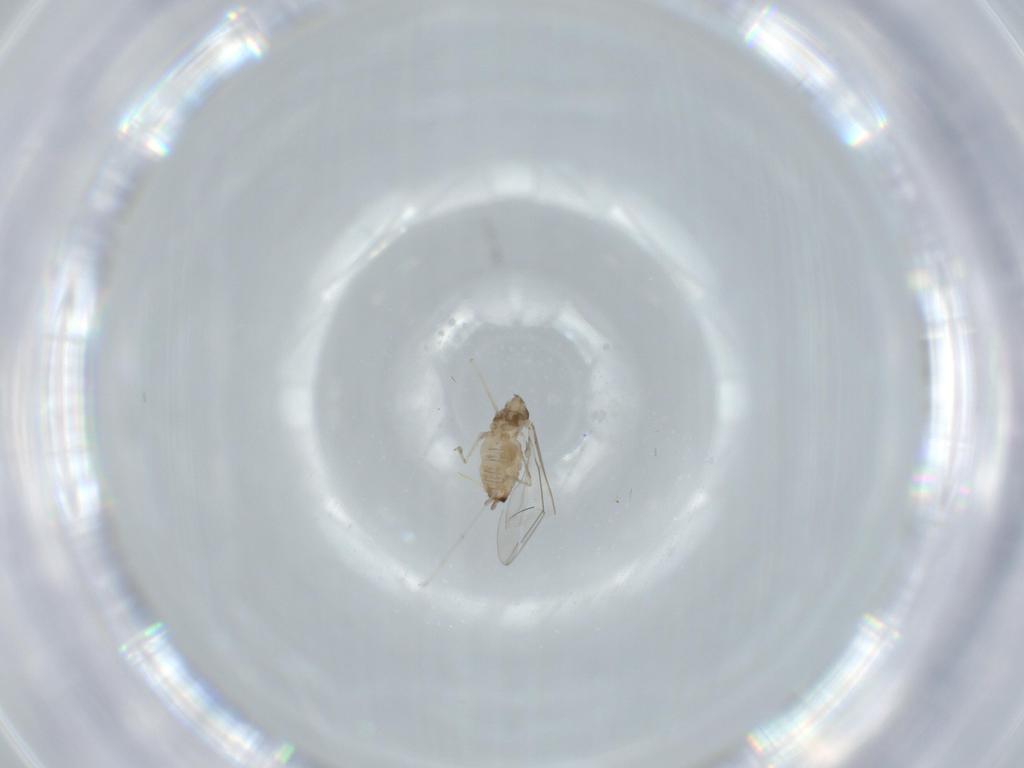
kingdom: Animalia
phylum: Arthropoda
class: Insecta
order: Diptera
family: Cecidomyiidae
